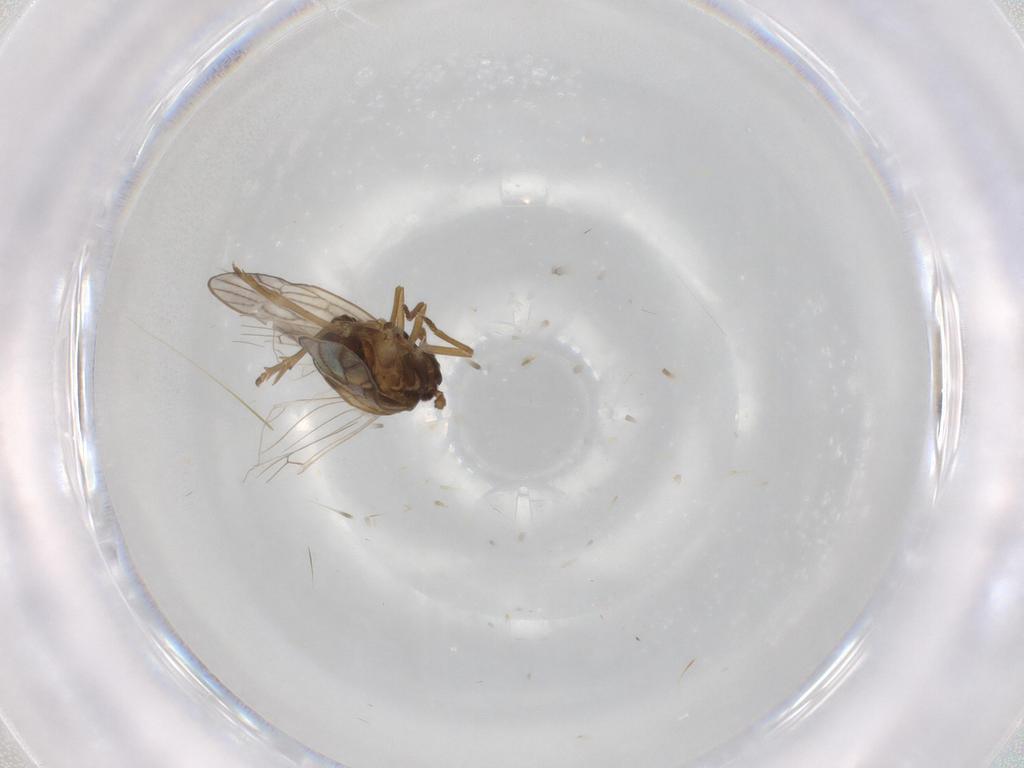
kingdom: Animalia
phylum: Arthropoda
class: Insecta
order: Hemiptera
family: Delphacidae
